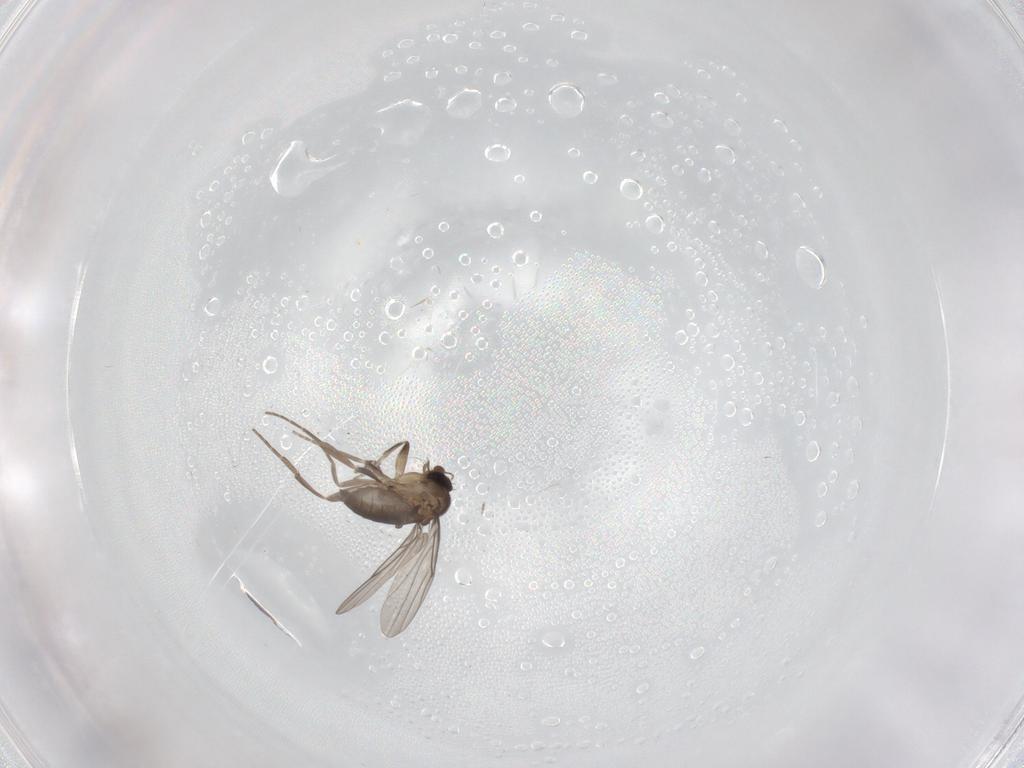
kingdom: Animalia
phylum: Arthropoda
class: Insecta
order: Diptera
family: Cecidomyiidae
